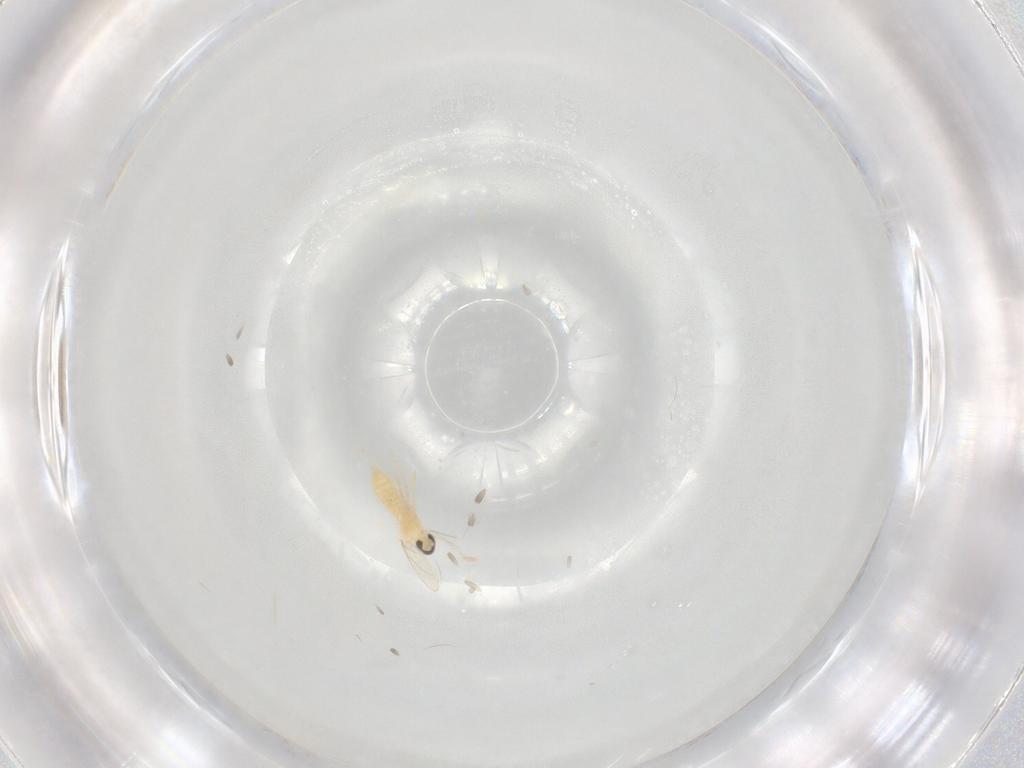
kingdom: Animalia
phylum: Arthropoda
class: Insecta
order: Diptera
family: Cecidomyiidae
